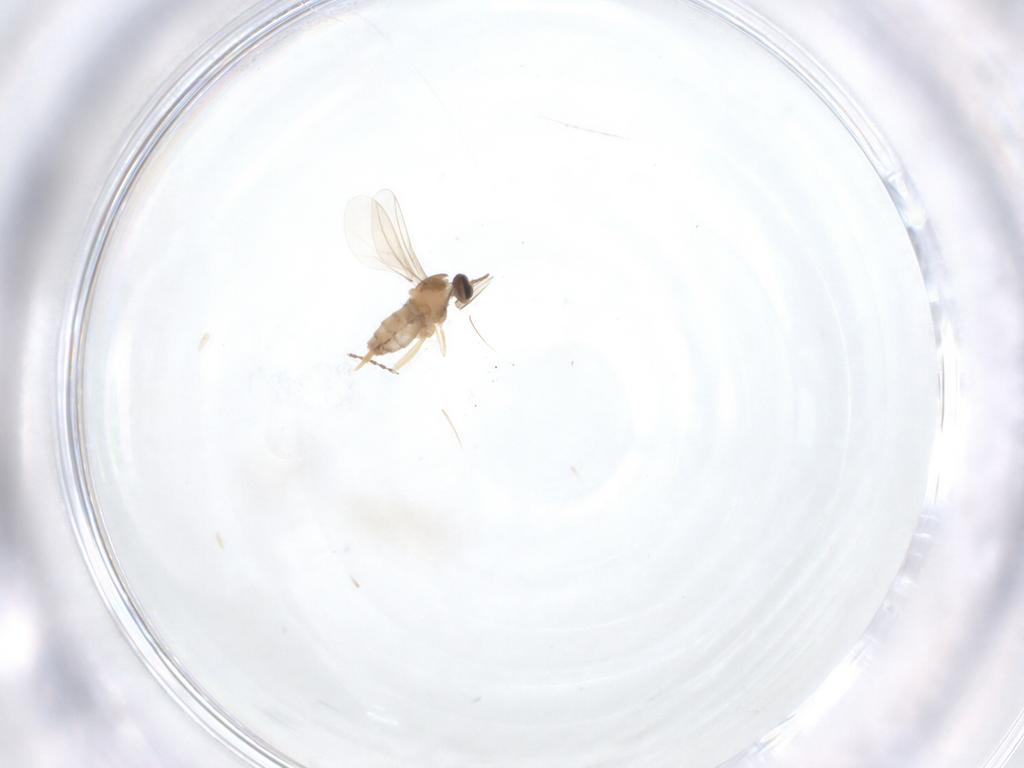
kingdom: Animalia
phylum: Arthropoda
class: Insecta
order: Diptera
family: Cecidomyiidae
